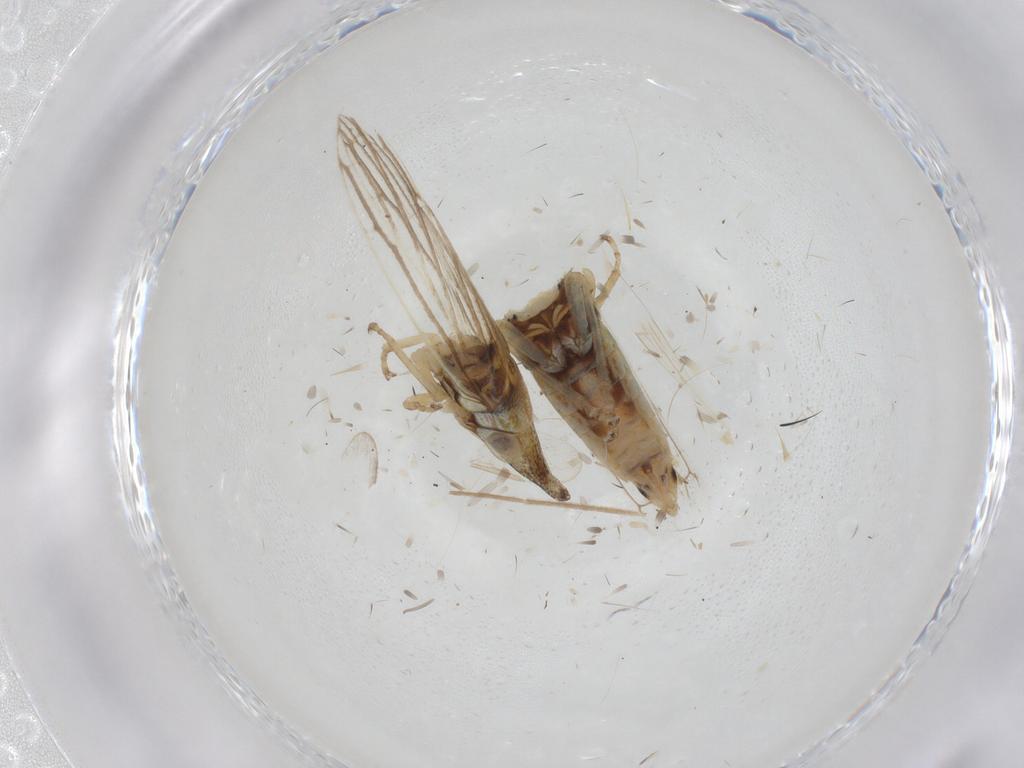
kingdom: Animalia
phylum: Arthropoda
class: Insecta
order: Hemiptera
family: Cicadellidae
